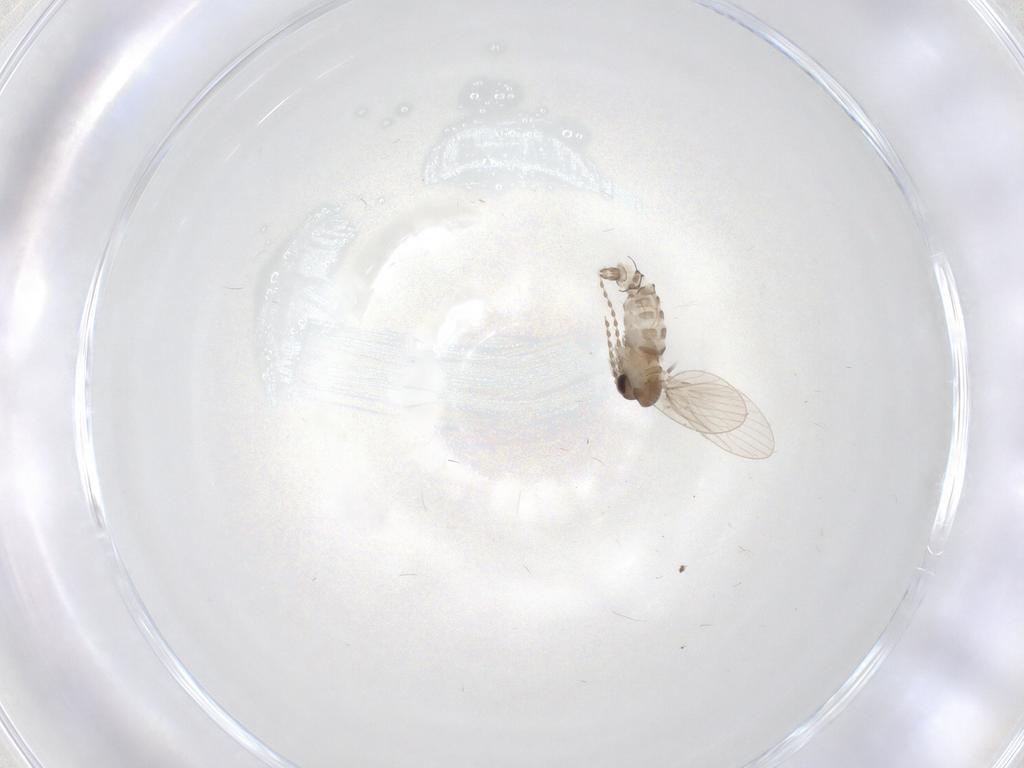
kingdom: Animalia
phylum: Arthropoda
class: Insecta
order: Diptera
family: Psychodidae
